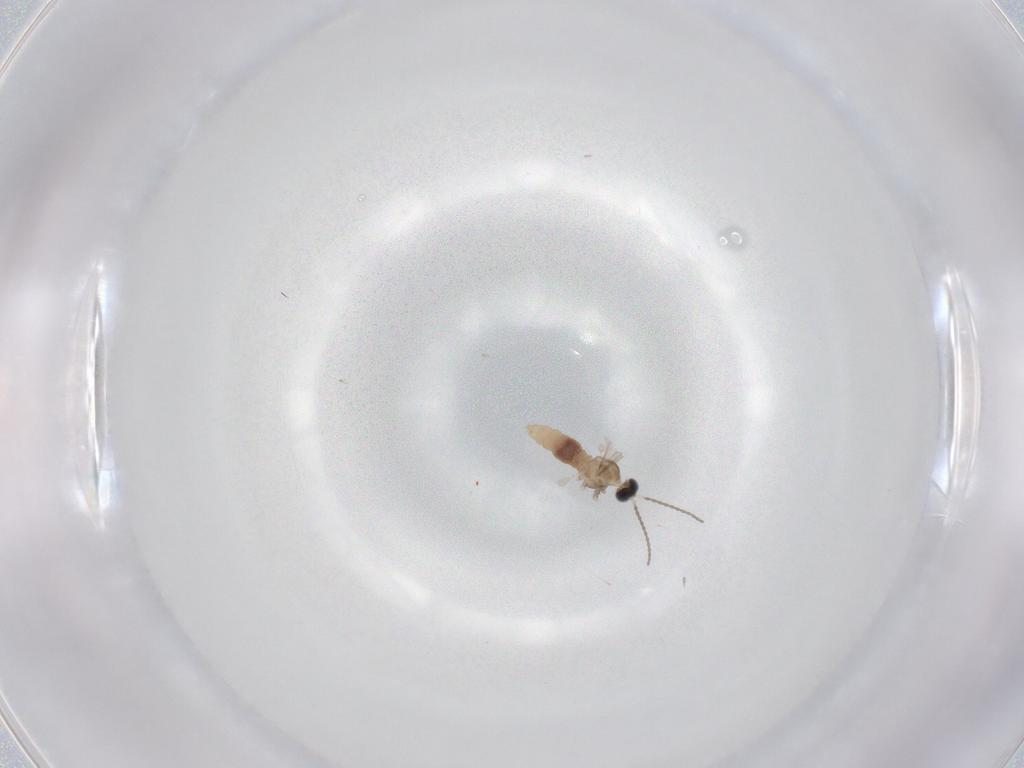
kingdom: Animalia
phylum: Arthropoda
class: Insecta
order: Diptera
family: Cecidomyiidae
